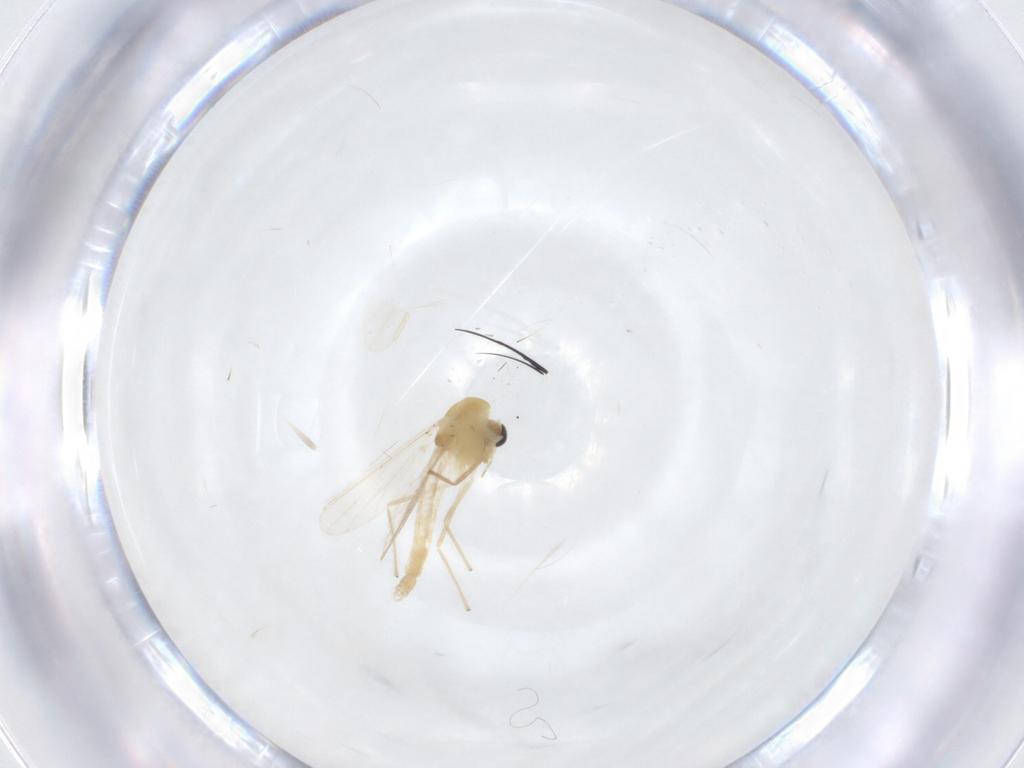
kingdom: Animalia
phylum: Arthropoda
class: Insecta
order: Diptera
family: Chironomidae
